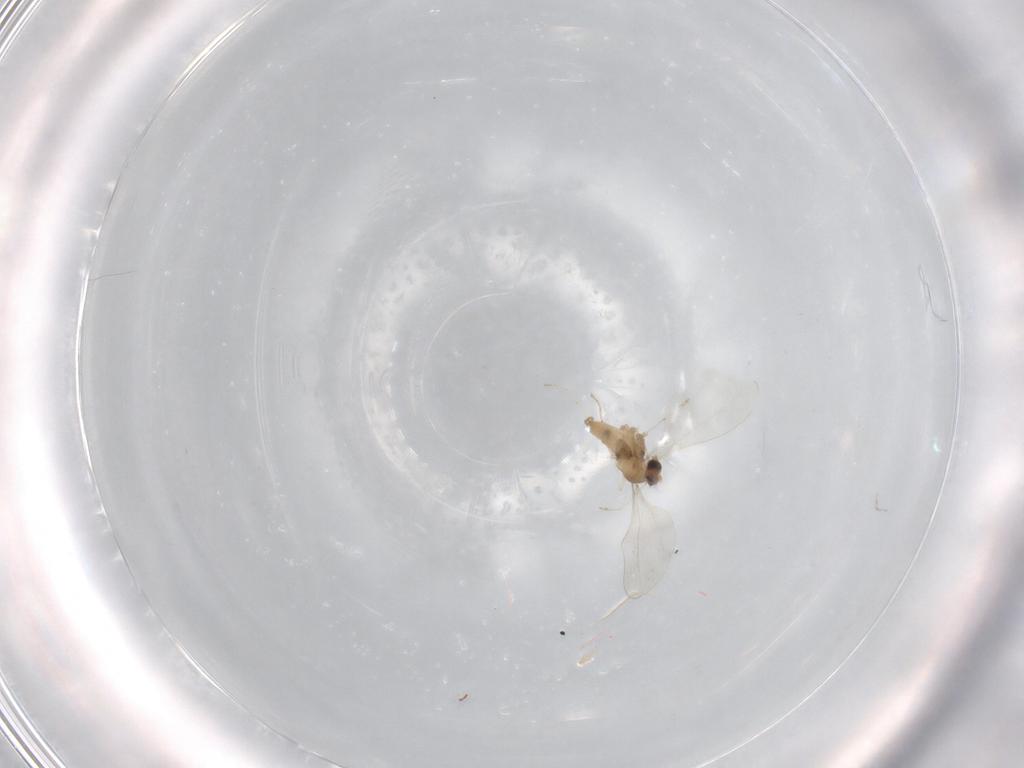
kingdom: Animalia
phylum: Arthropoda
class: Insecta
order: Diptera
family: Cecidomyiidae
